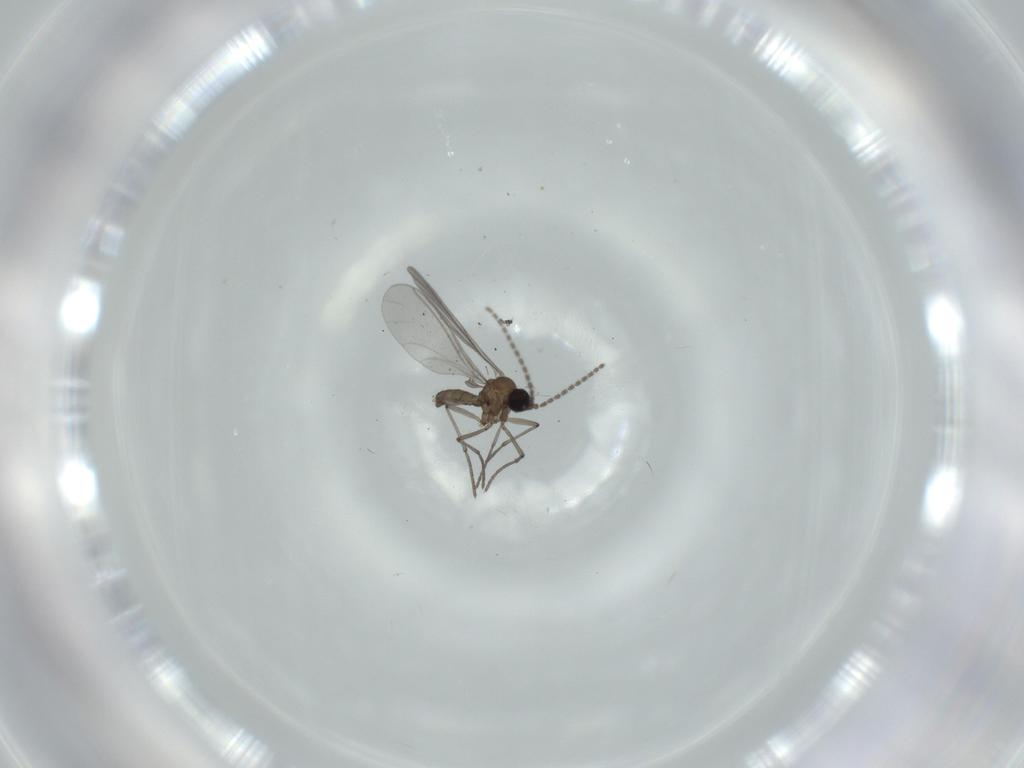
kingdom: Animalia
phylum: Arthropoda
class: Insecta
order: Diptera
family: Sciaridae
